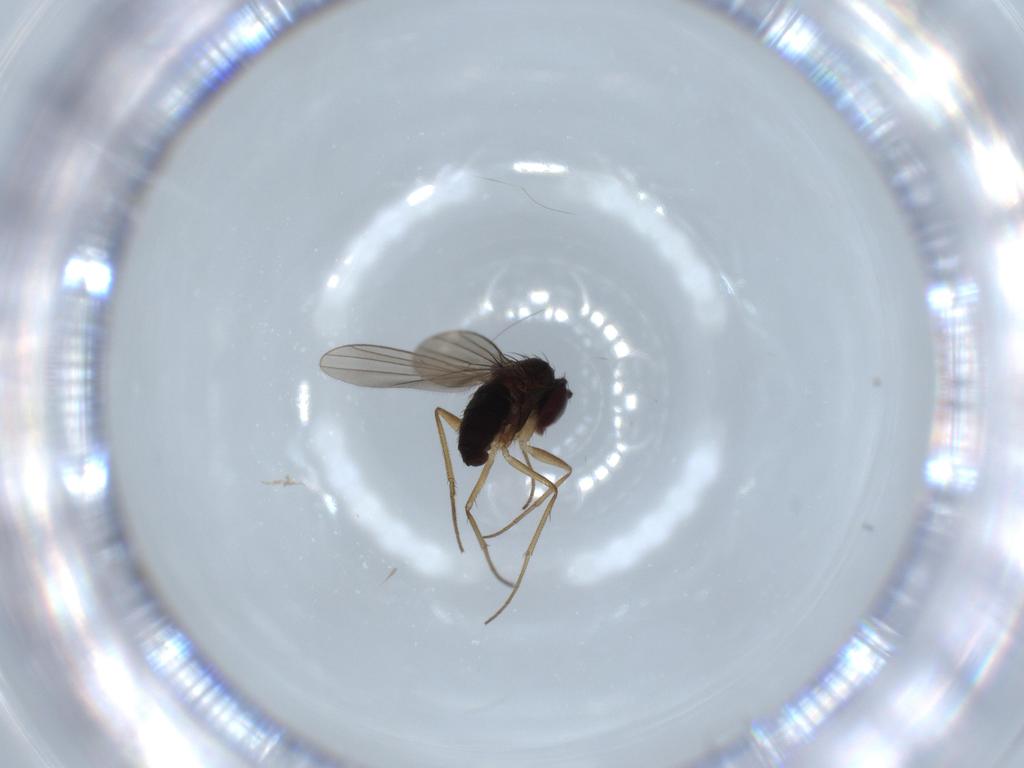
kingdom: Animalia
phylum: Arthropoda
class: Insecta
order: Diptera
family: Dolichopodidae
